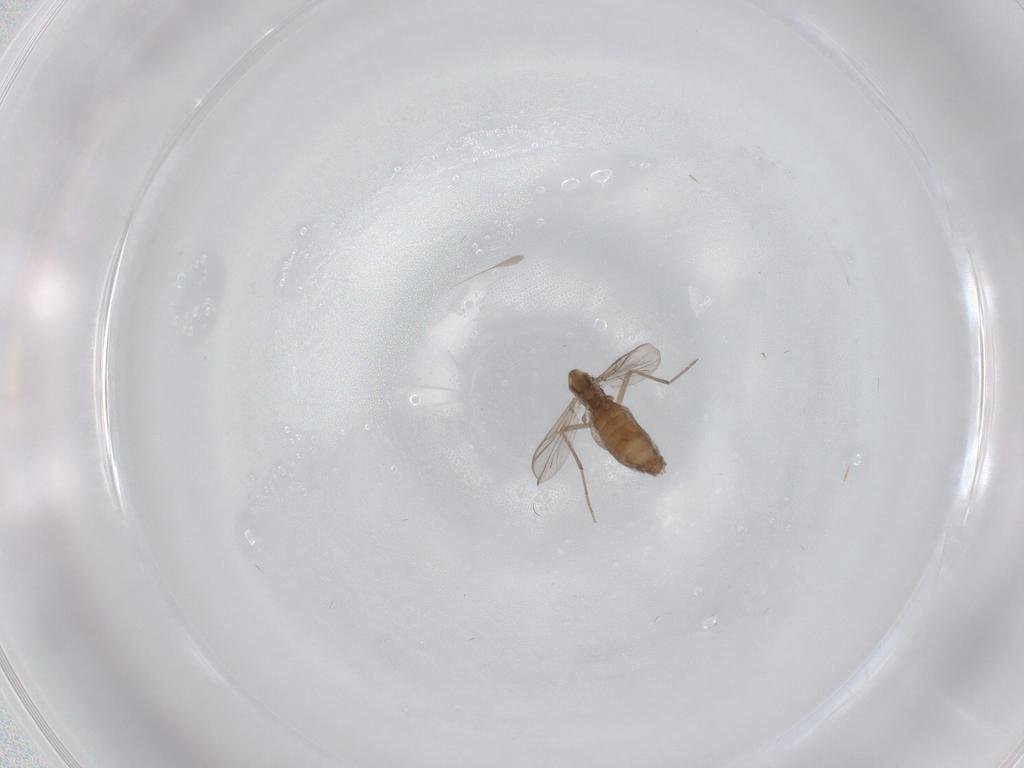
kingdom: Animalia
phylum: Arthropoda
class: Insecta
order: Diptera
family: Chironomidae
